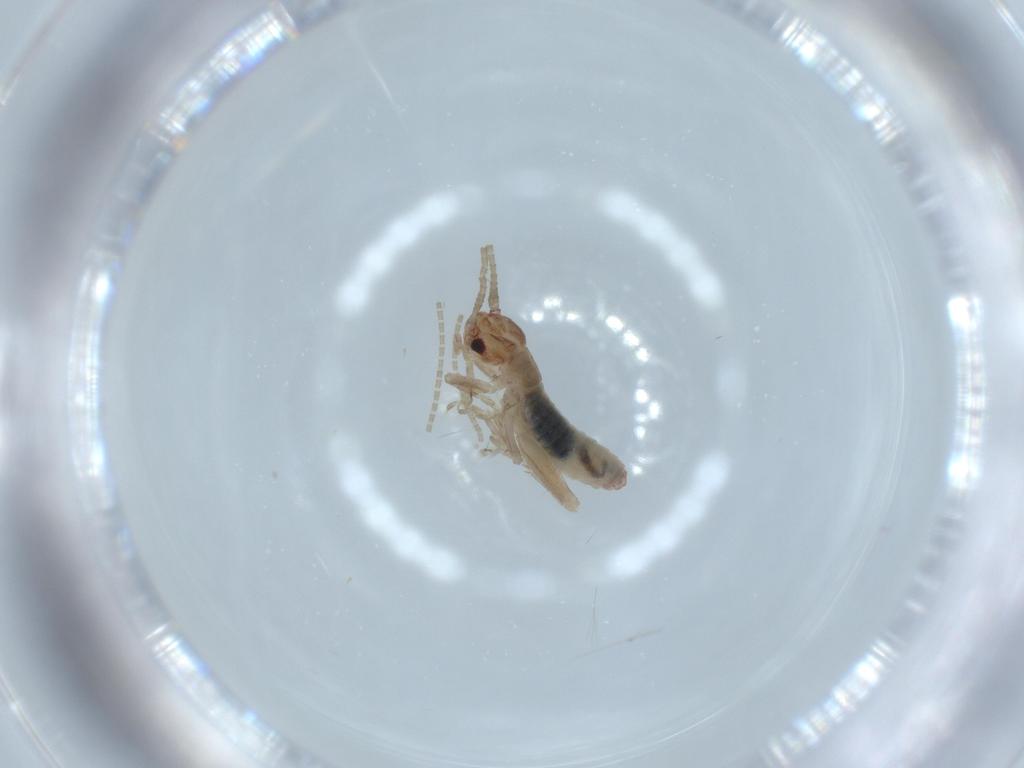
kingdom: Animalia
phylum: Arthropoda
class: Insecta
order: Orthoptera
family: Mogoplistidae
